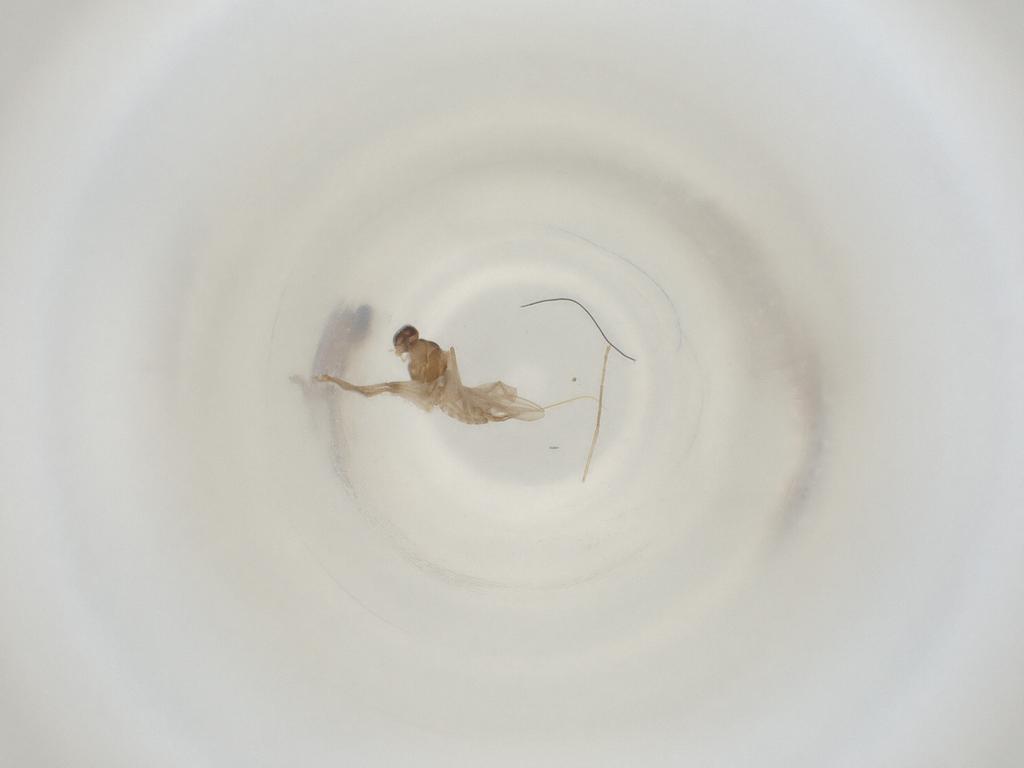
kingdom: Animalia
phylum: Arthropoda
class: Insecta
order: Diptera
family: Cecidomyiidae
